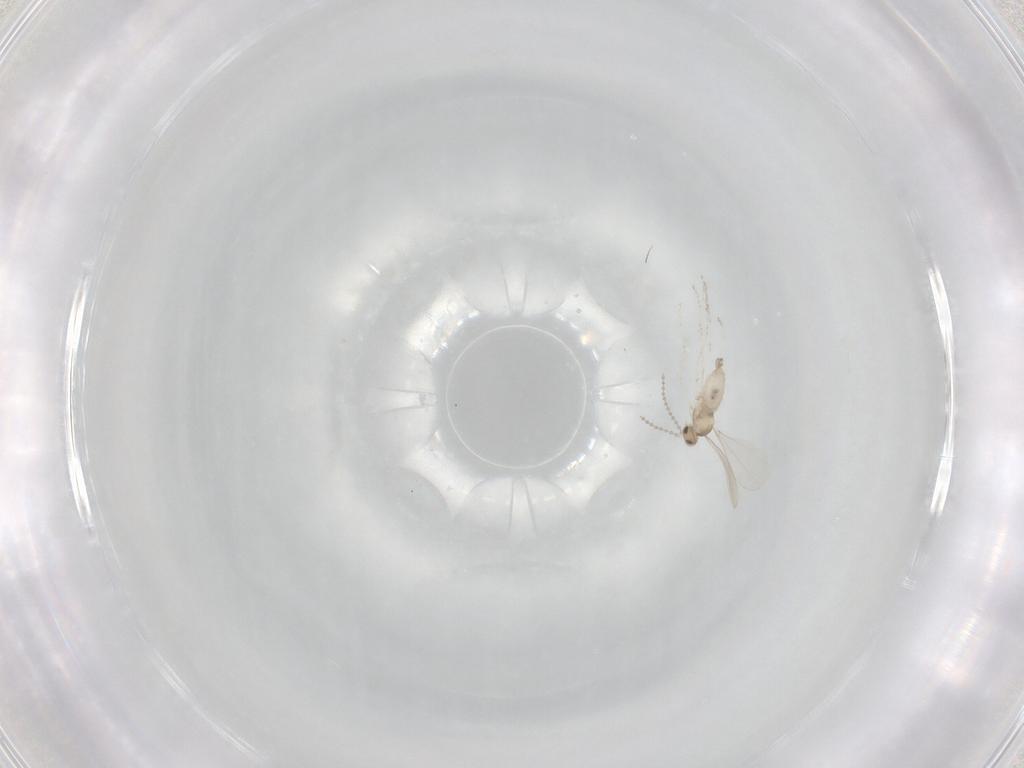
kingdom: Animalia
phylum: Arthropoda
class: Insecta
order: Diptera
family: Cecidomyiidae
